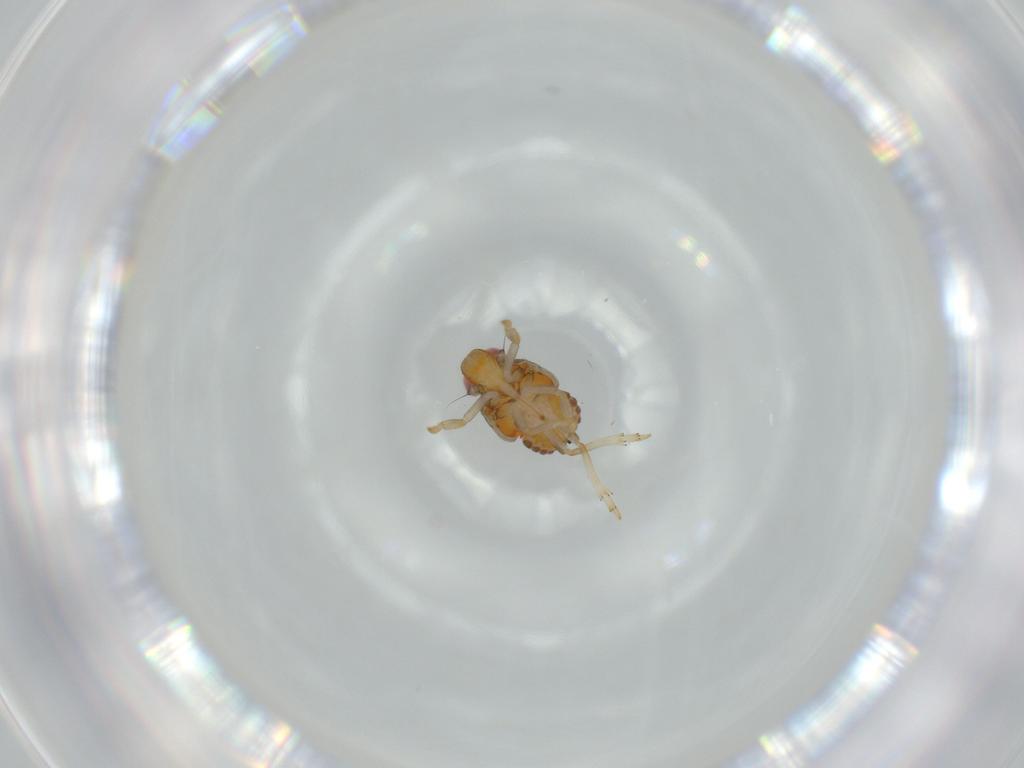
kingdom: Animalia
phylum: Arthropoda
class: Insecta
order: Hemiptera
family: Issidae
